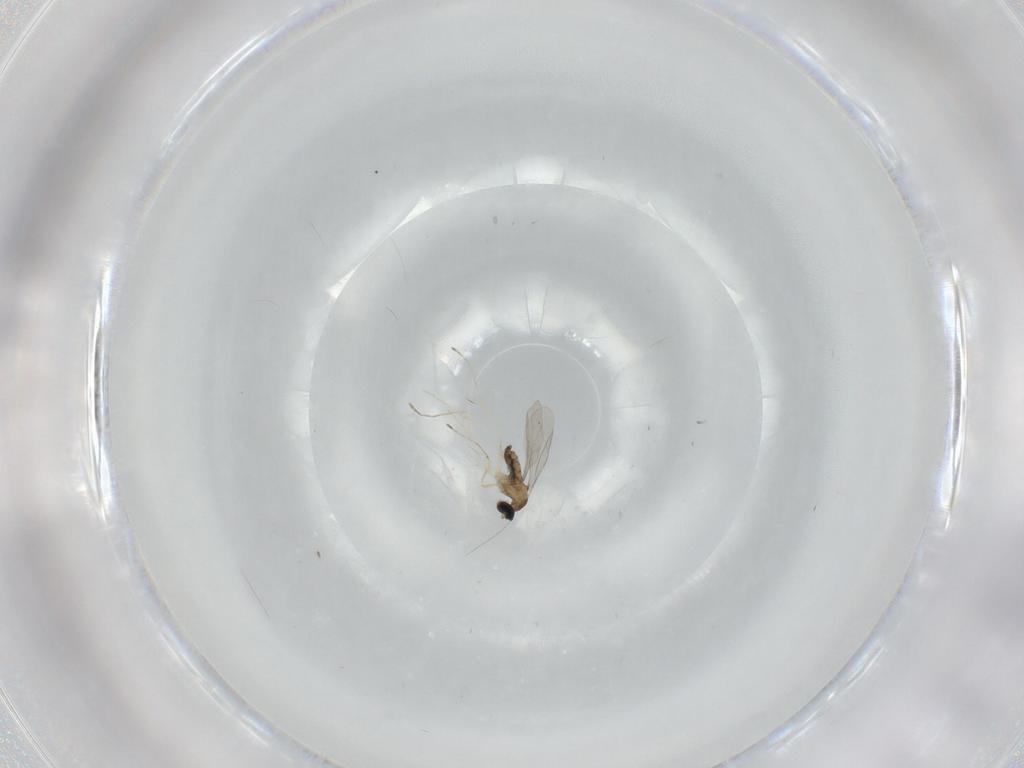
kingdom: Animalia
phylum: Arthropoda
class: Insecta
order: Diptera
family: Cecidomyiidae
